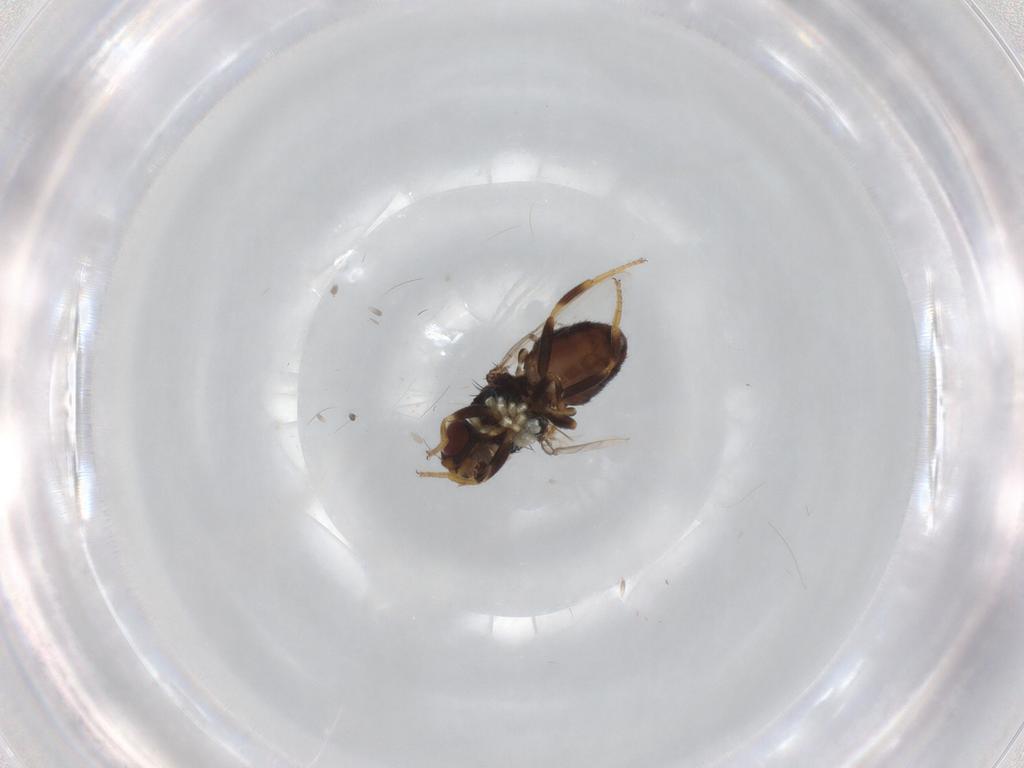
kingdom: Animalia
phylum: Arthropoda
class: Insecta
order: Diptera
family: Chloropidae
